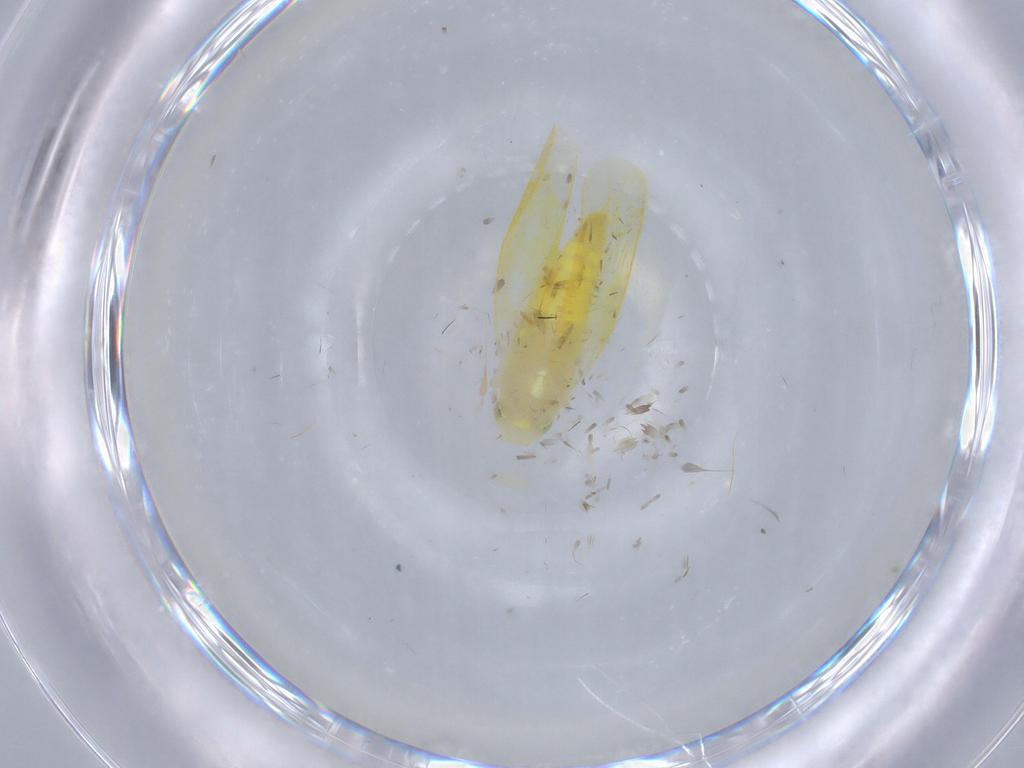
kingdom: Animalia
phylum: Arthropoda
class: Insecta
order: Hemiptera
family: Cicadellidae
